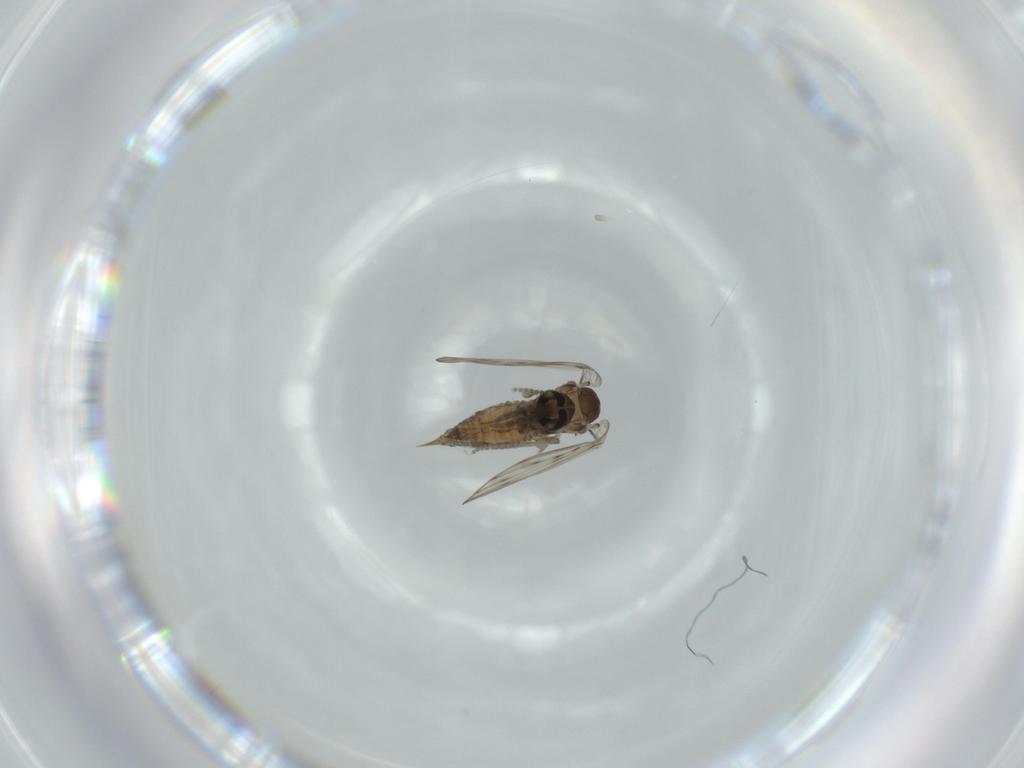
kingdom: Animalia
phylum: Arthropoda
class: Insecta
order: Diptera
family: Psychodidae
